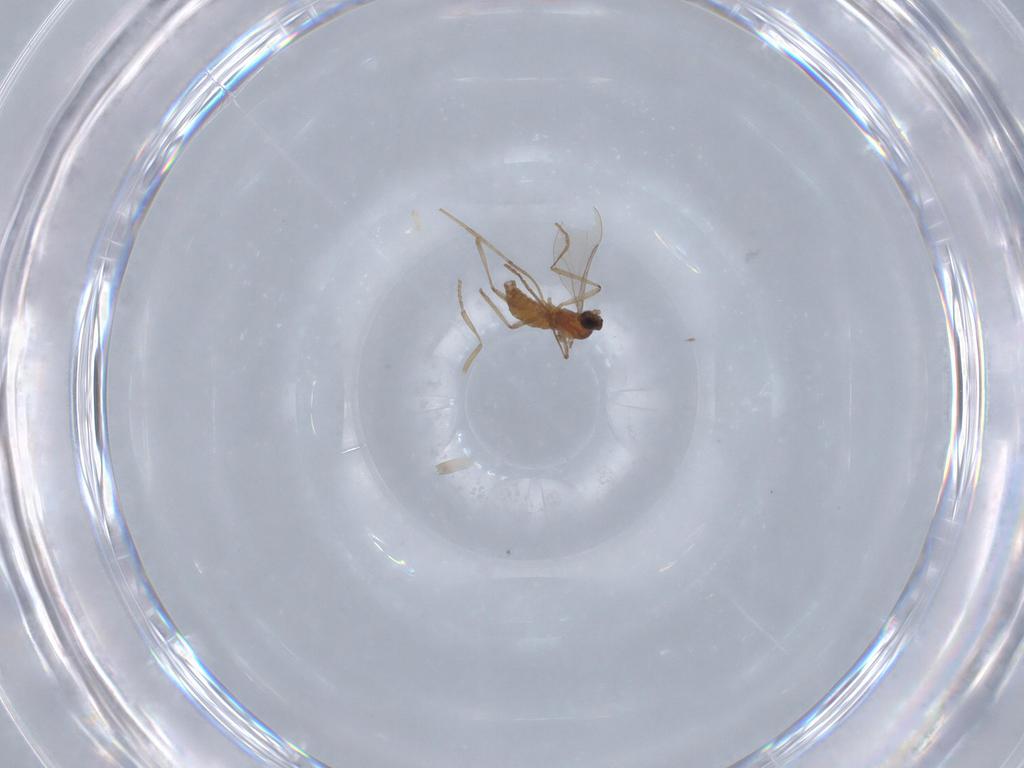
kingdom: Animalia
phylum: Arthropoda
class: Insecta
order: Diptera
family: Cecidomyiidae
